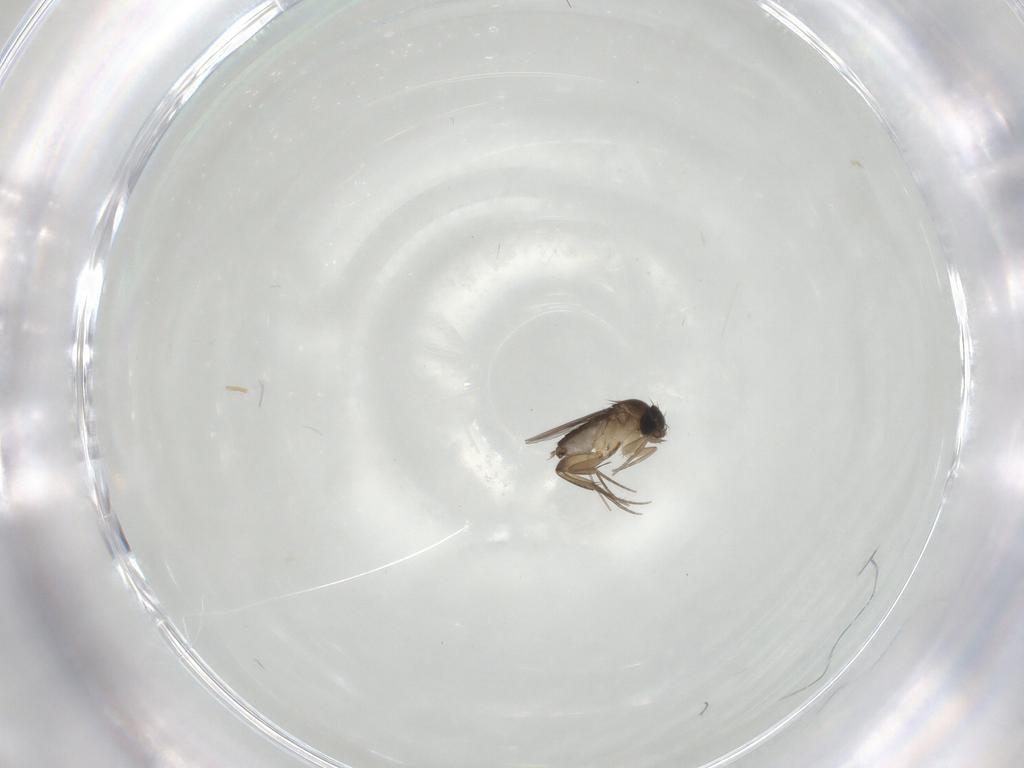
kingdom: Animalia
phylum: Arthropoda
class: Insecta
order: Diptera
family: Phoridae
